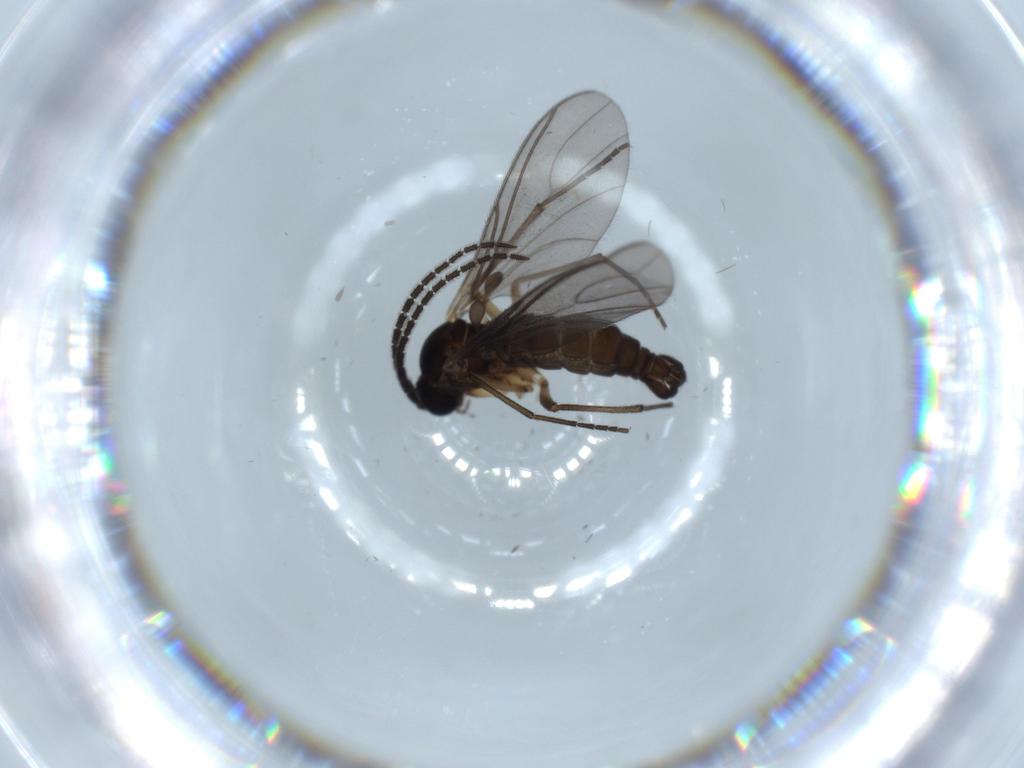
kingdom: Animalia
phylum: Arthropoda
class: Insecta
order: Diptera
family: Sciaridae
